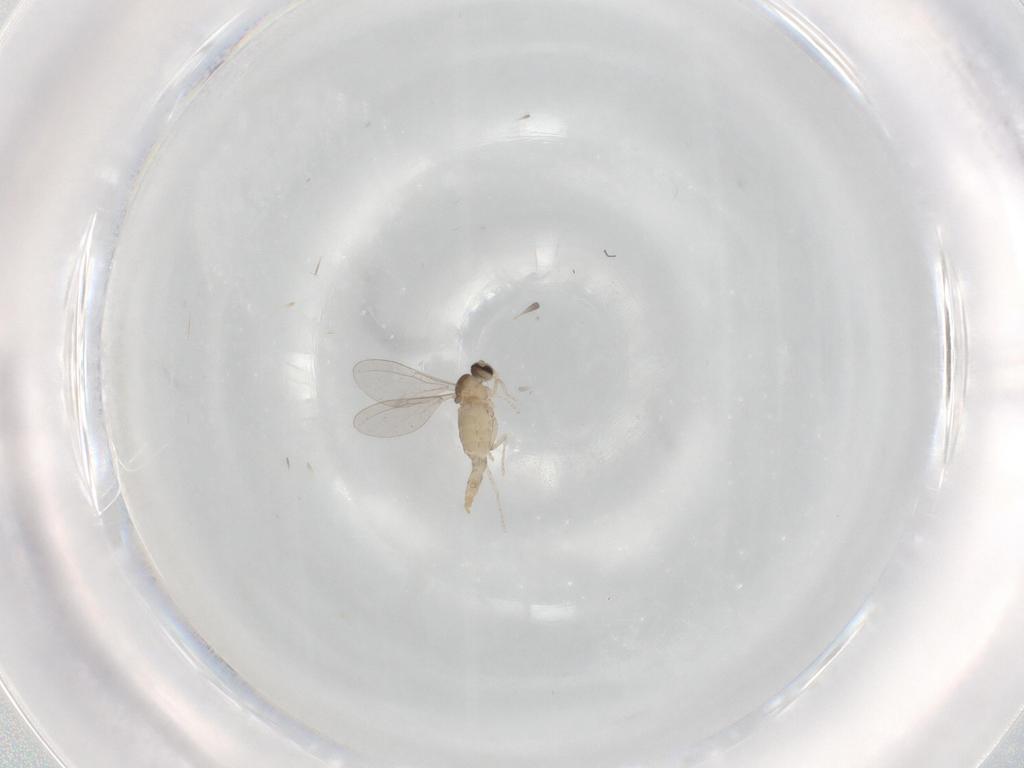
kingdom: Animalia
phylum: Arthropoda
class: Insecta
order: Diptera
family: Cecidomyiidae
